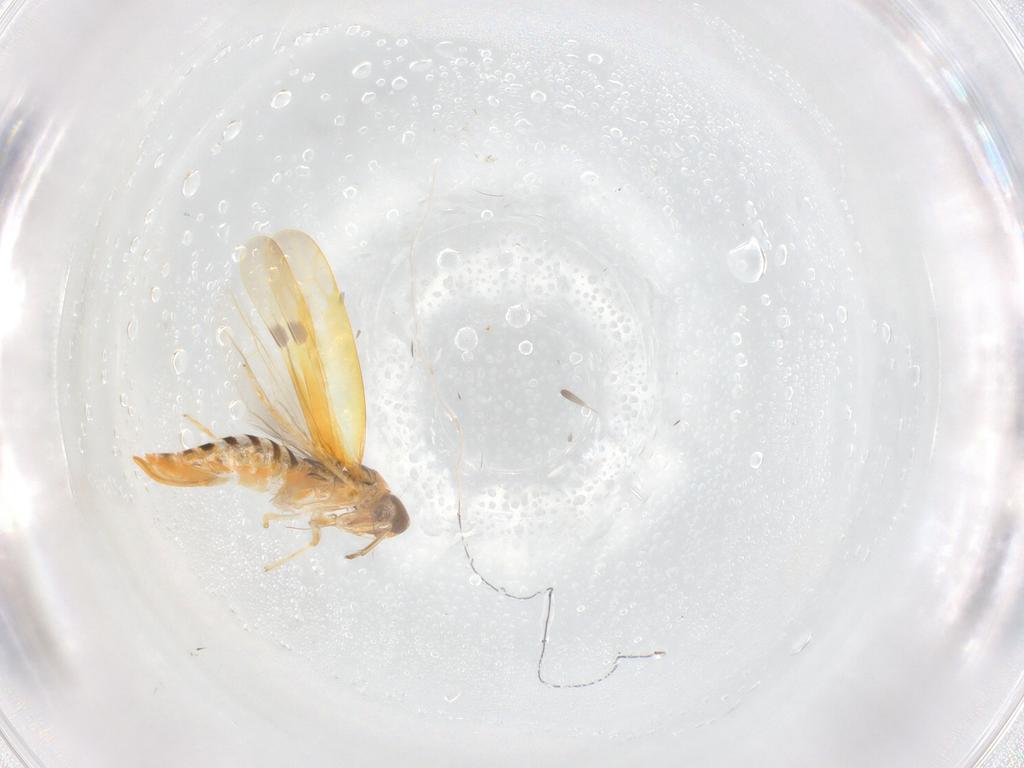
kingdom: Animalia
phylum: Arthropoda
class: Insecta
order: Hemiptera
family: Cicadellidae
